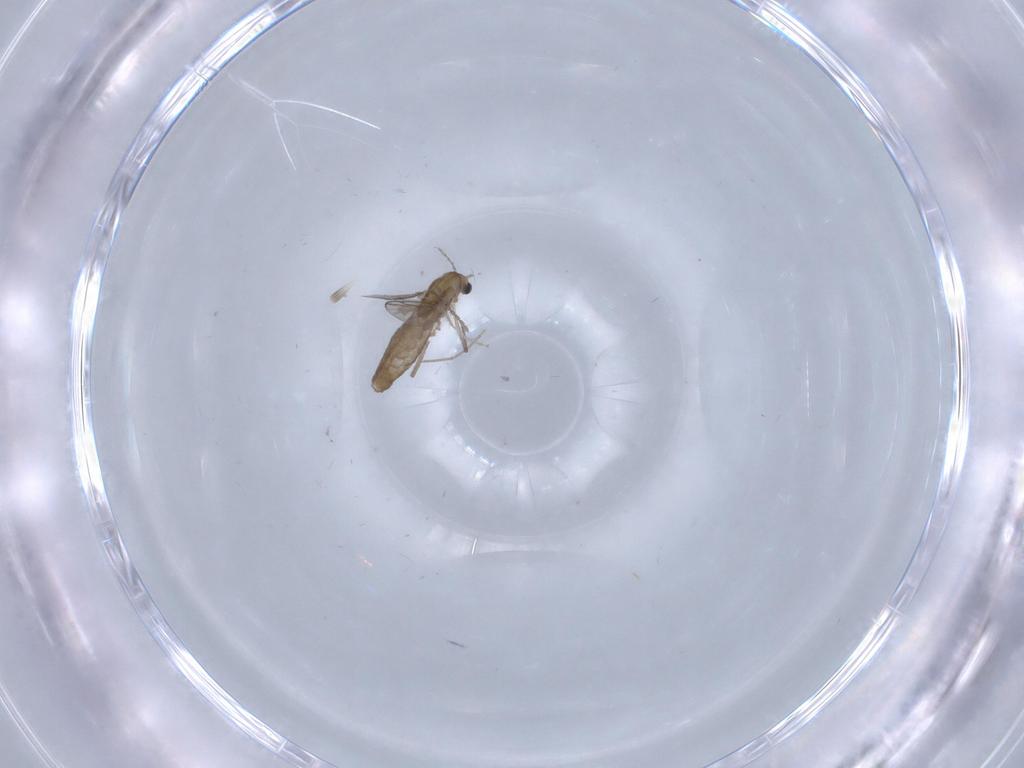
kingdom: Animalia
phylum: Arthropoda
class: Insecta
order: Diptera
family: Chironomidae
